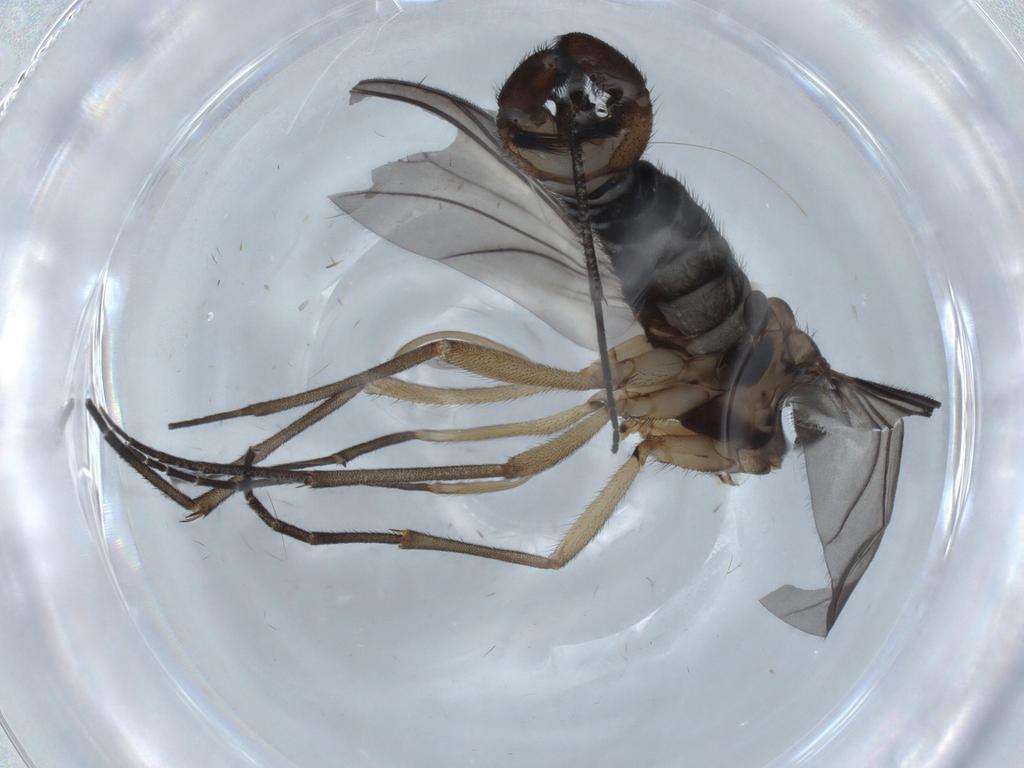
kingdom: Animalia
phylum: Arthropoda
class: Insecta
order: Diptera
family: Sciaridae
